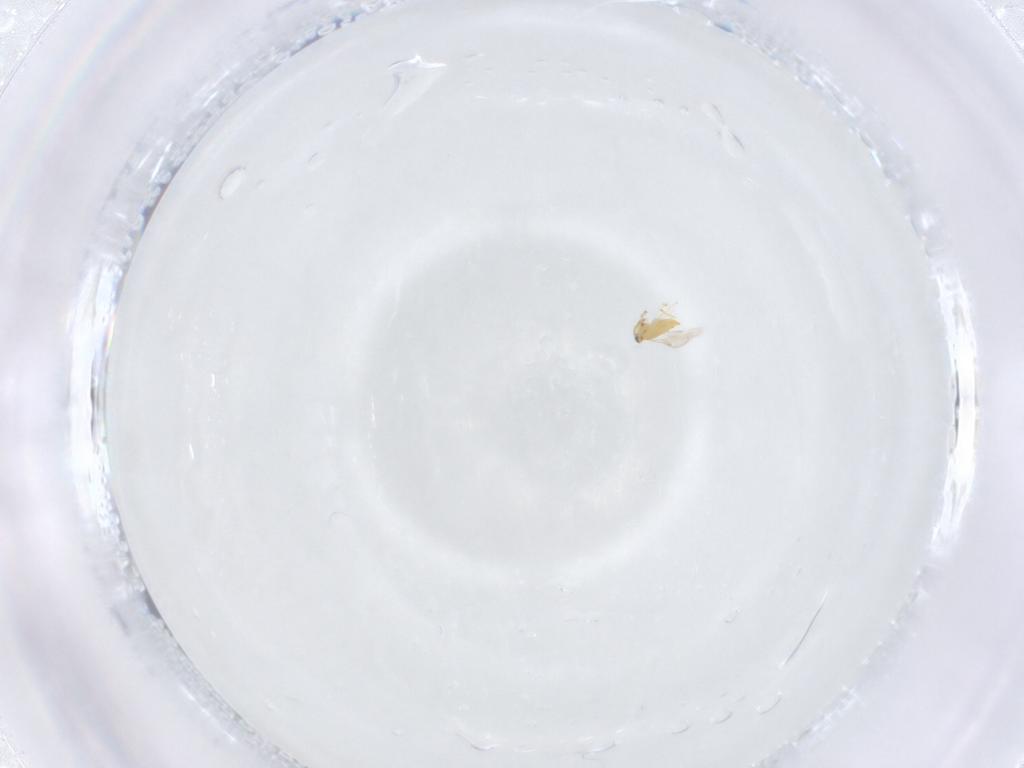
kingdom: Animalia
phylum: Arthropoda
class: Insecta
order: Hymenoptera
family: Aphelinidae
